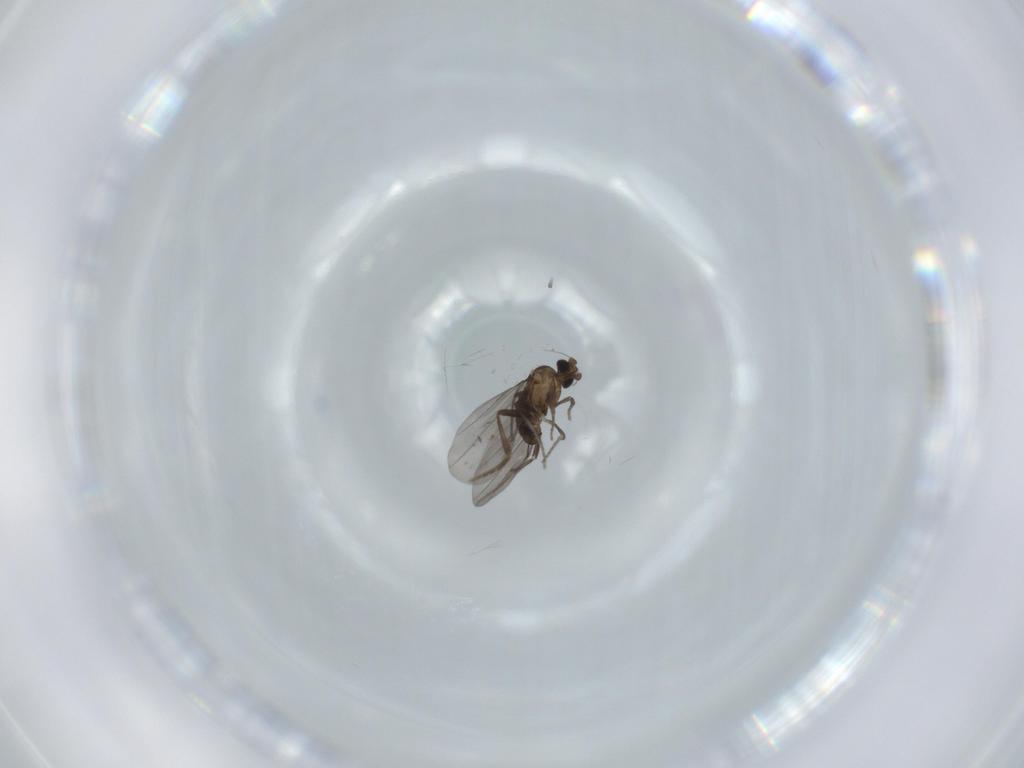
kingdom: Animalia
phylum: Arthropoda
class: Insecta
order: Diptera
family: Phoridae
